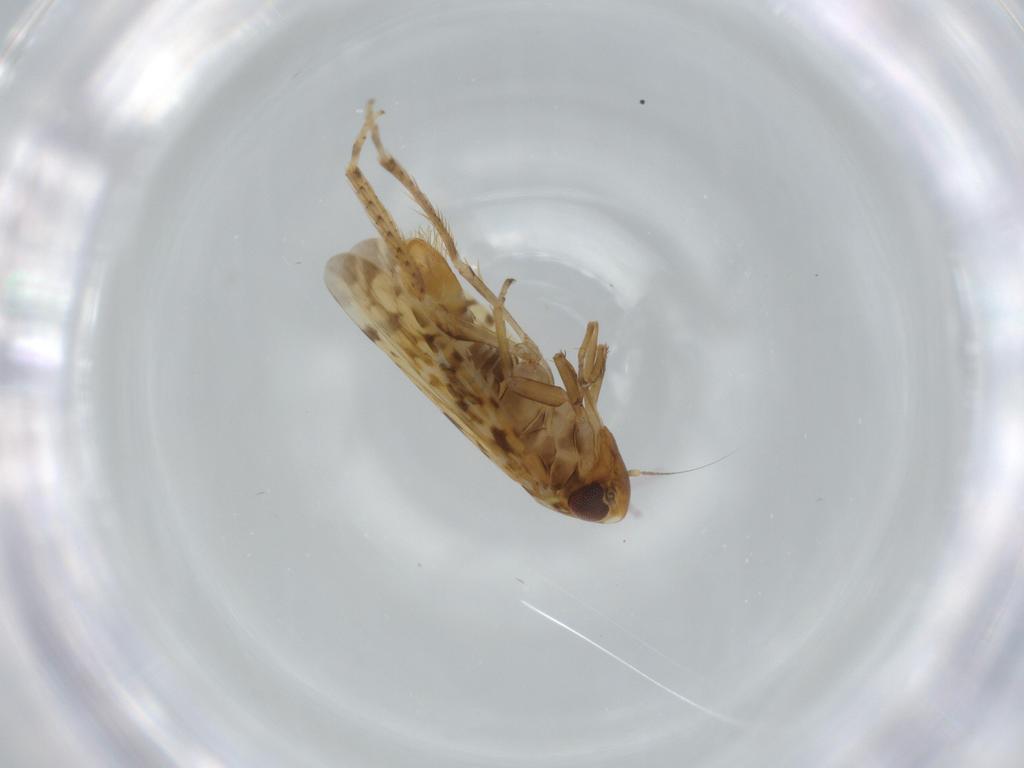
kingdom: Animalia
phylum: Arthropoda
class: Insecta
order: Hemiptera
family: Cicadellidae
